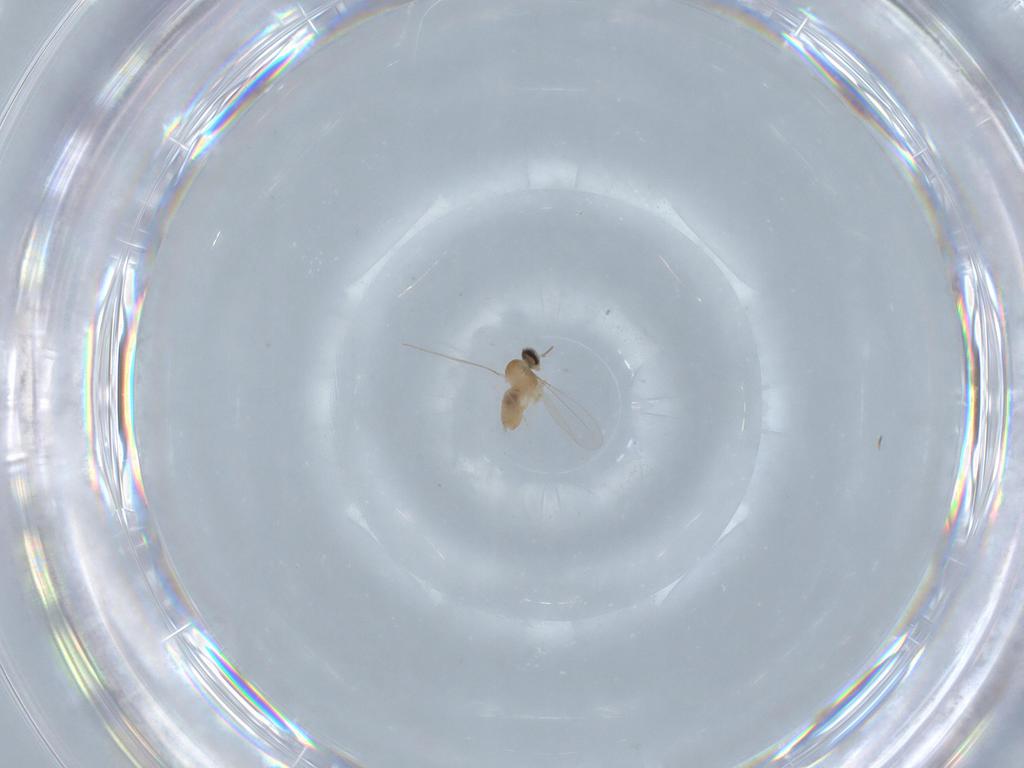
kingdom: Animalia
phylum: Arthropoda
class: Insecta
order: Diptera
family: Cecidomyiidae
